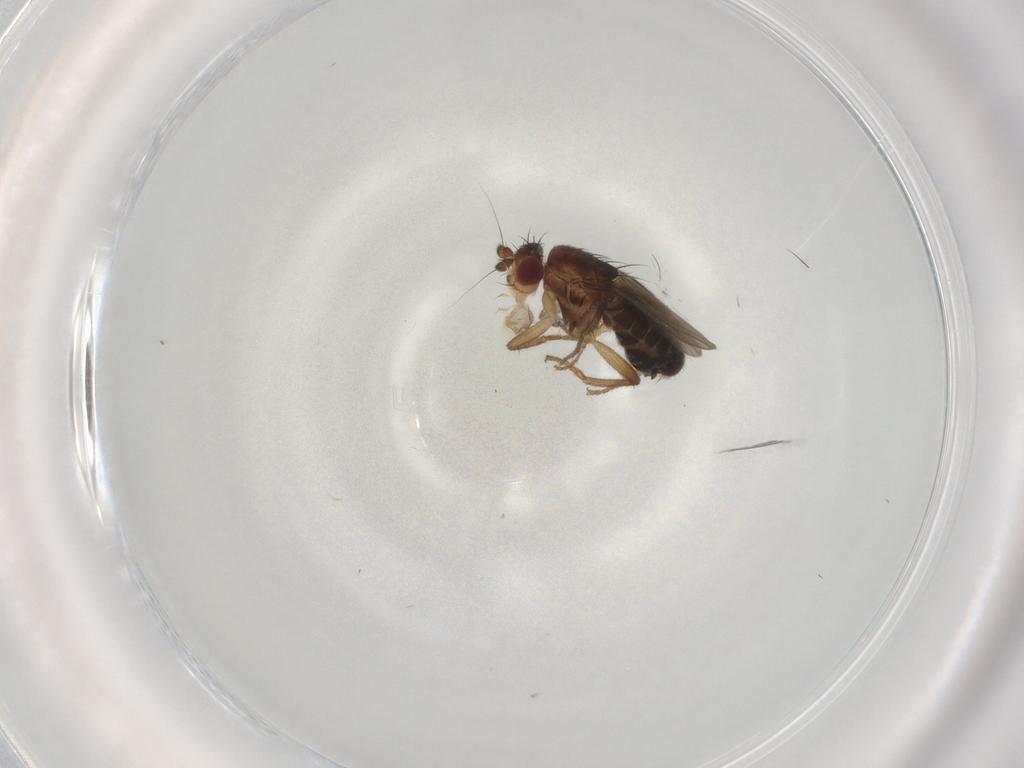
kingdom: Animalia
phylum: Arthropoda
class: Insecta
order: Diptera
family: Sphaeroceridae
